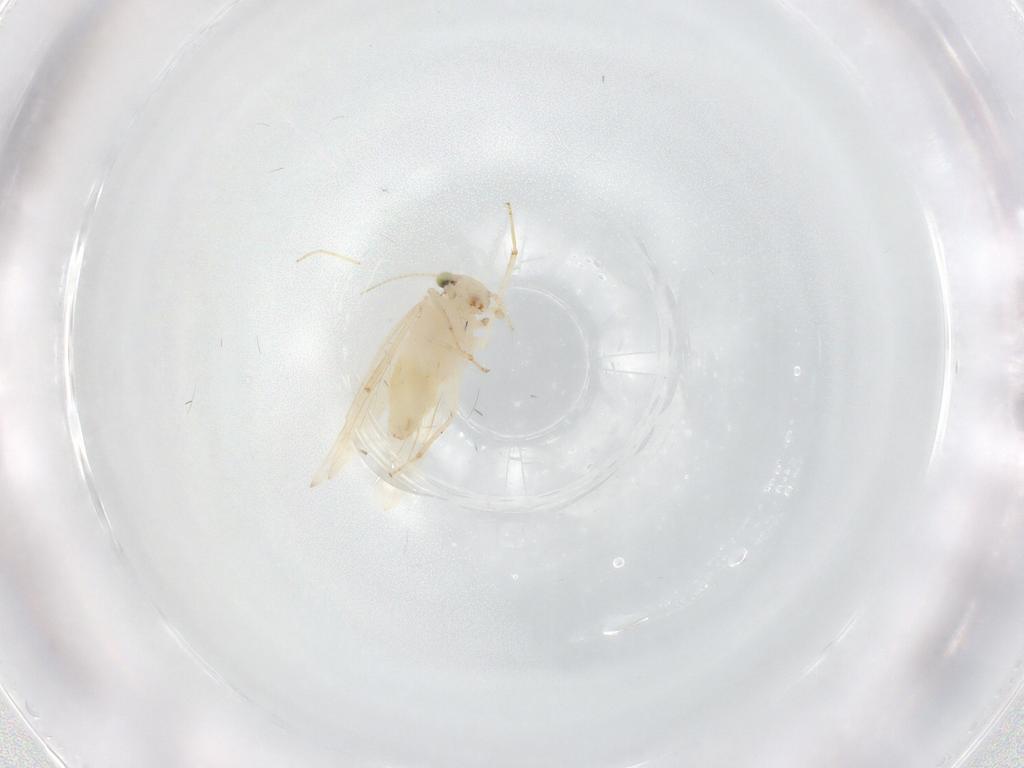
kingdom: Animalia
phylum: Arthropoda
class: Insecta
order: Psocodea
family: Lepidopsocidae
